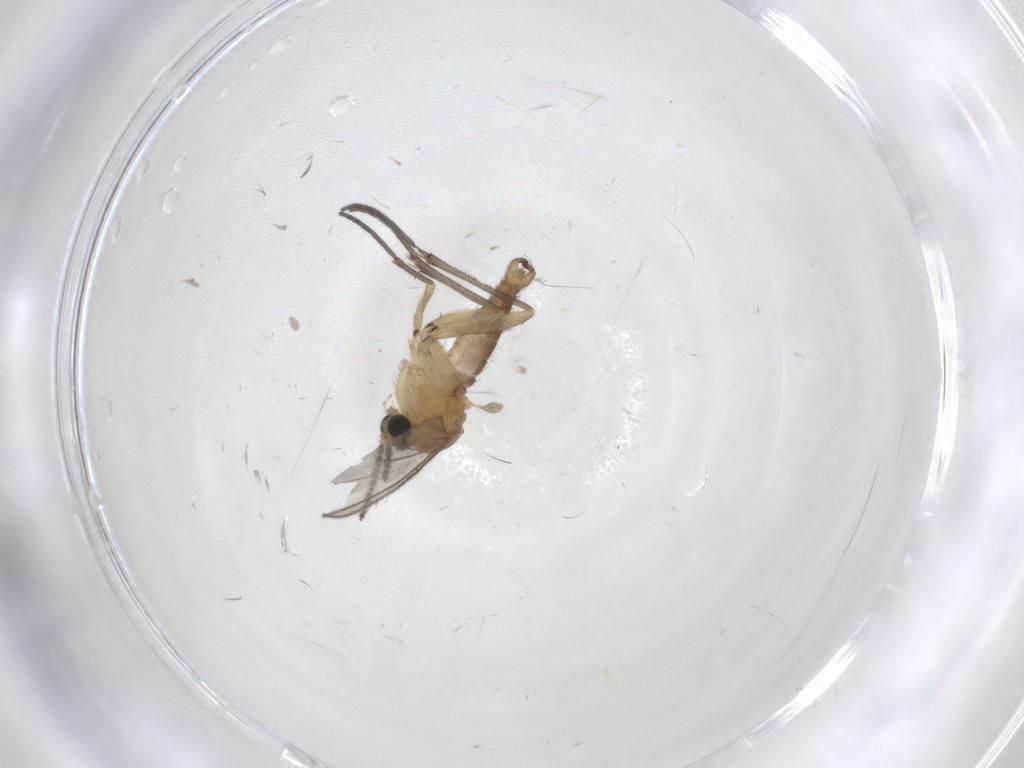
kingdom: Animalia
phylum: Arthropoda
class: Insecta
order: Diptera
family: Sciaridae
